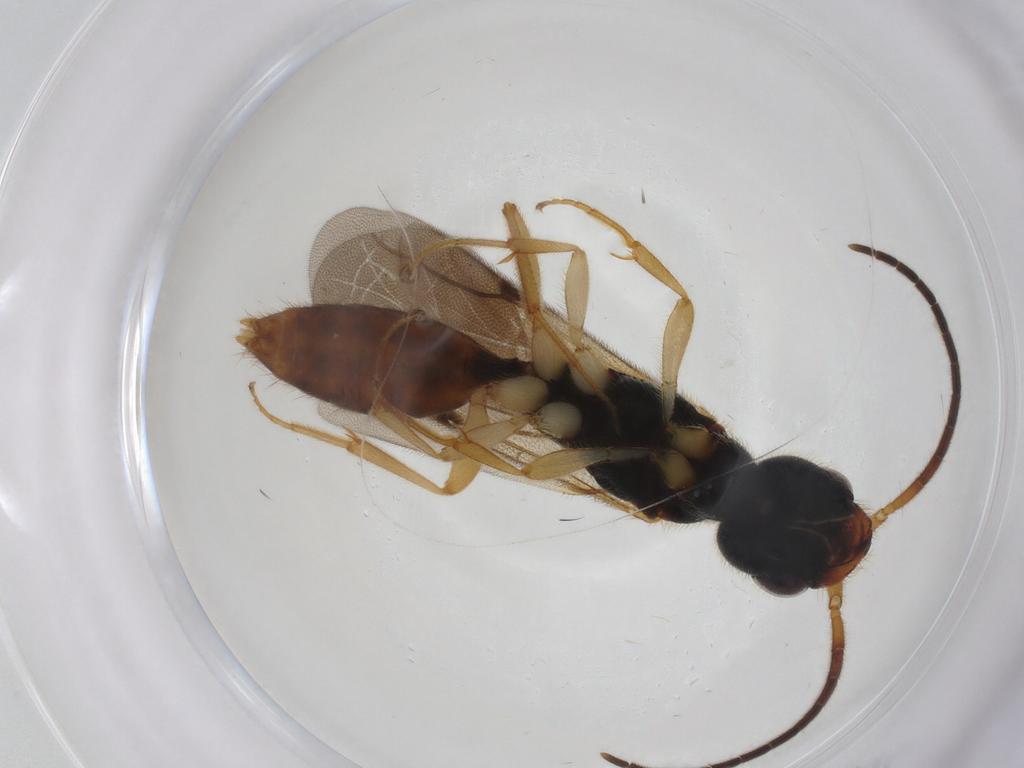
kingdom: Animalia
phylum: Arthropoda
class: Insecta
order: Hymenoptera
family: Bethylidae
